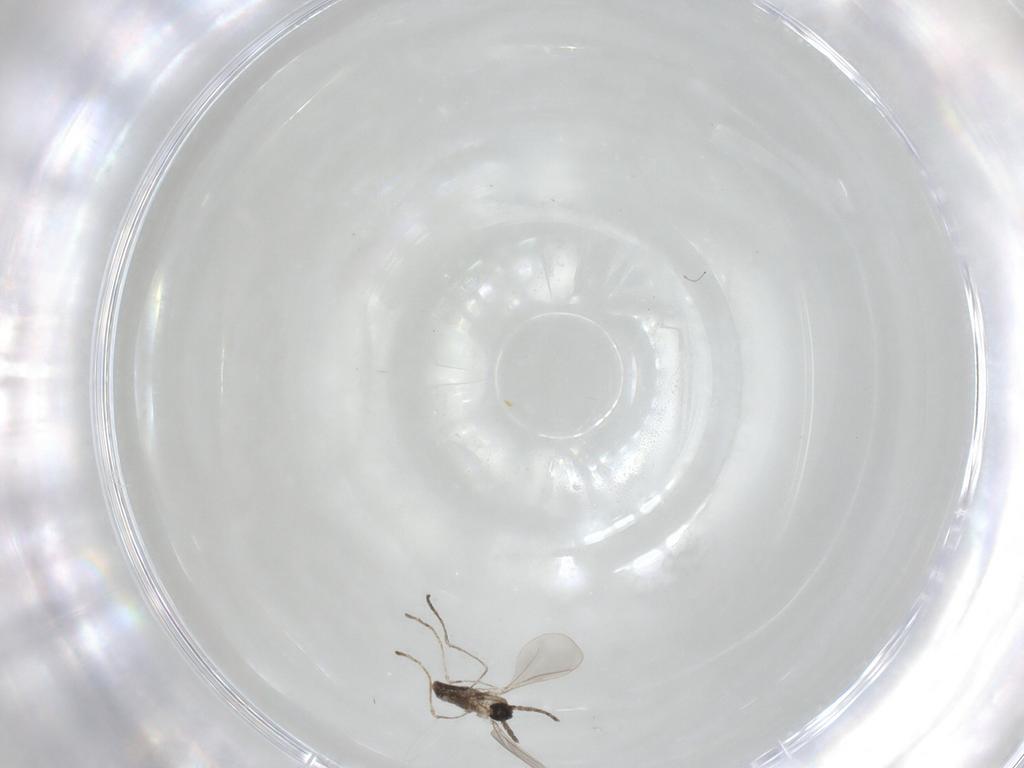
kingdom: Animalia
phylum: Arthropoda
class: Insecta
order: Diptera
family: Cecidomyiidae
